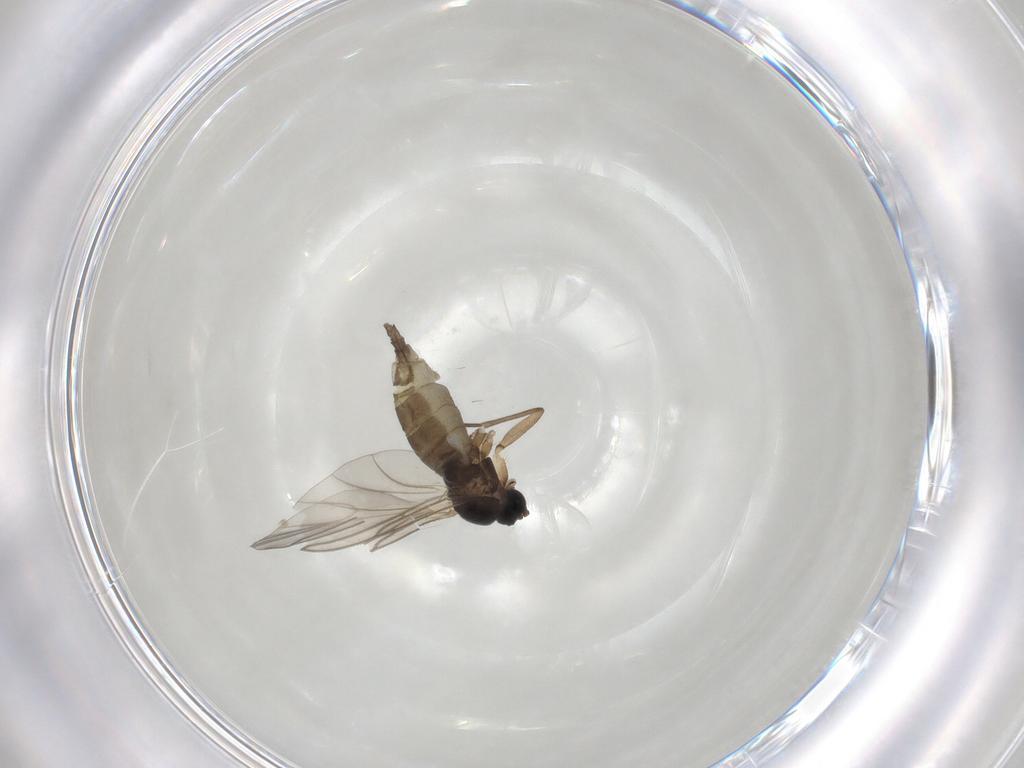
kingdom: Animalia
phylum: Arthropoda
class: Insecta
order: Diptera
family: Empididae
